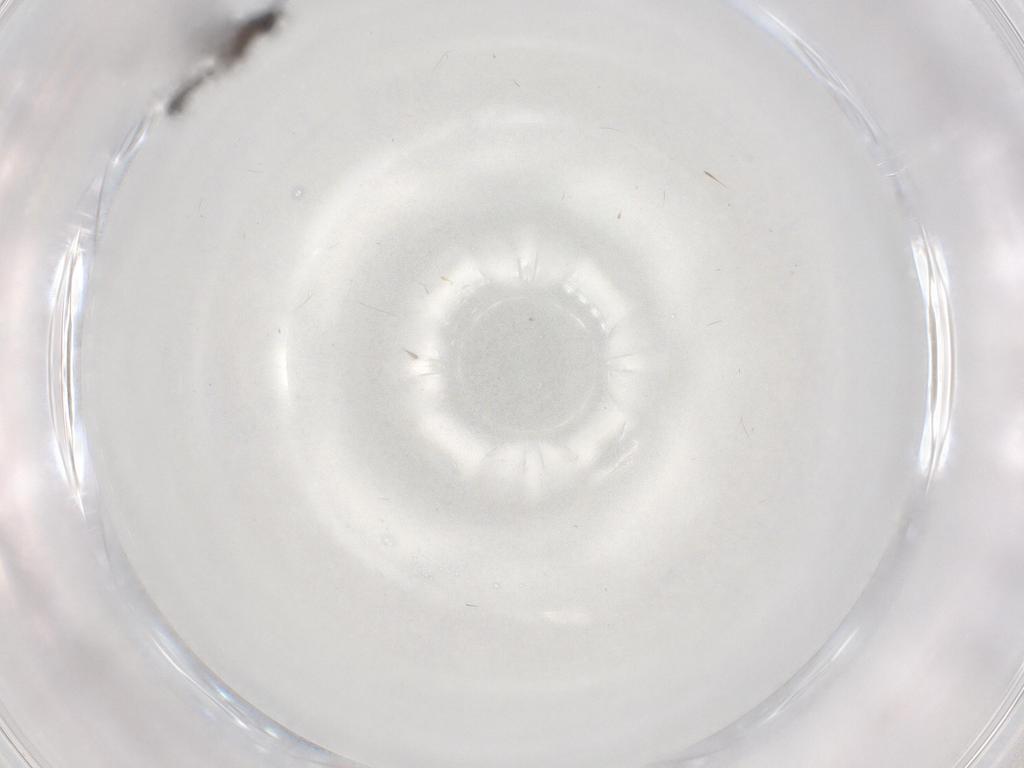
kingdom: Animalia
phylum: Arthropoda
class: Insecta
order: Diptera
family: Sciaridae
